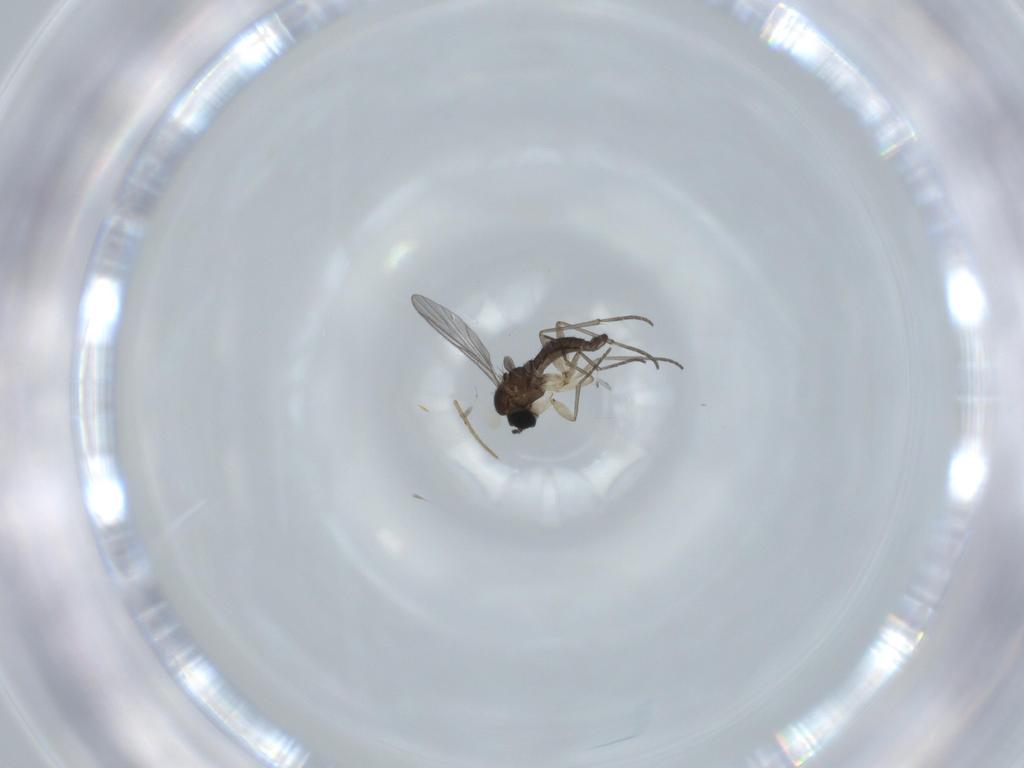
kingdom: Animalia
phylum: Arthropoda
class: Insecta
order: Diptera
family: Sciaridae
